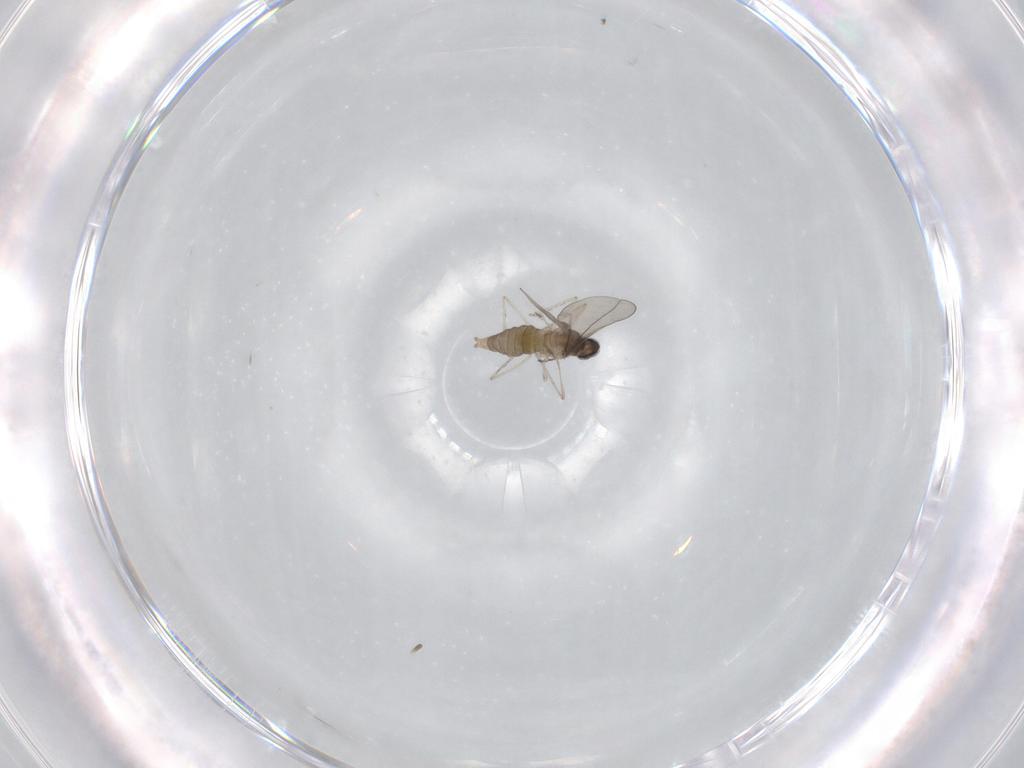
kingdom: Animalia
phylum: Arthropoda
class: Insecta
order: Diptera
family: Cecidomyiidae
